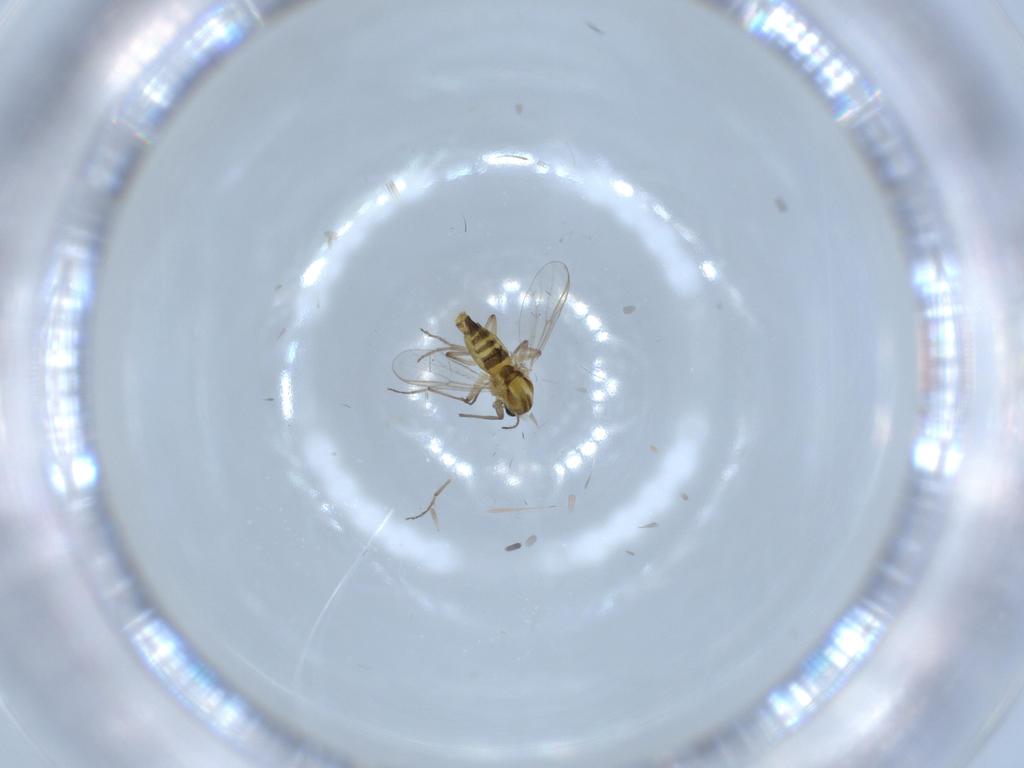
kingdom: Animalia
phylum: Arthropoda
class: Insecta
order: Diptera
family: Chironomidae
